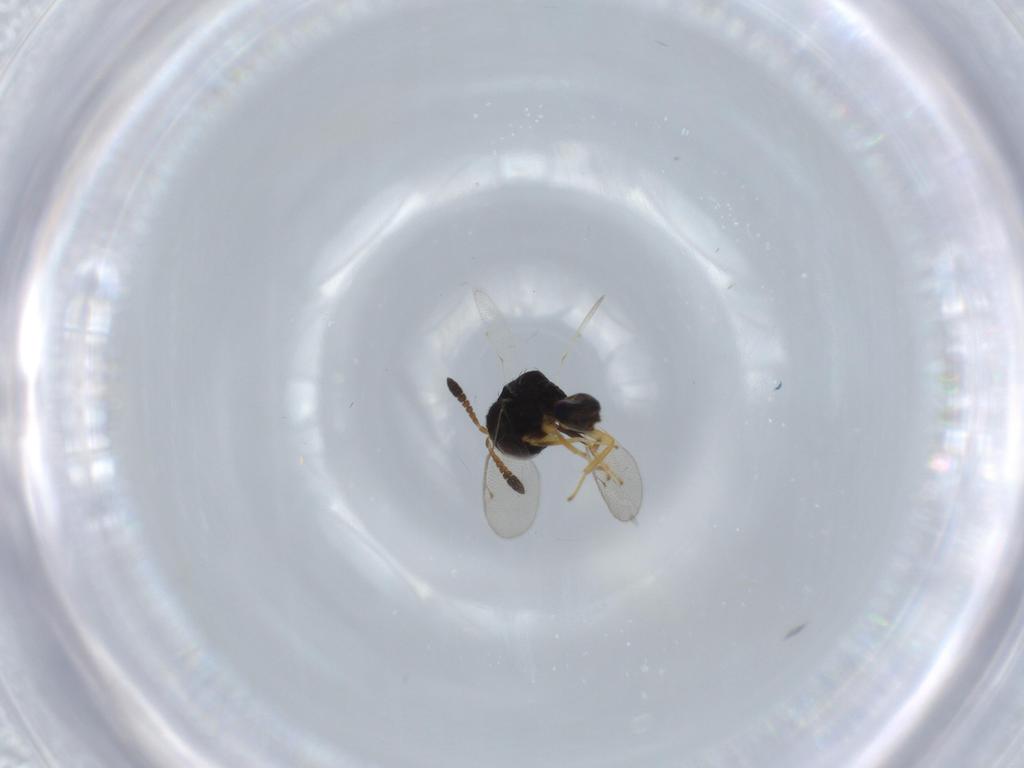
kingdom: Animalia
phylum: Arthropoda
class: Insecta
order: Hymenoptera
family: Pteromalidae
